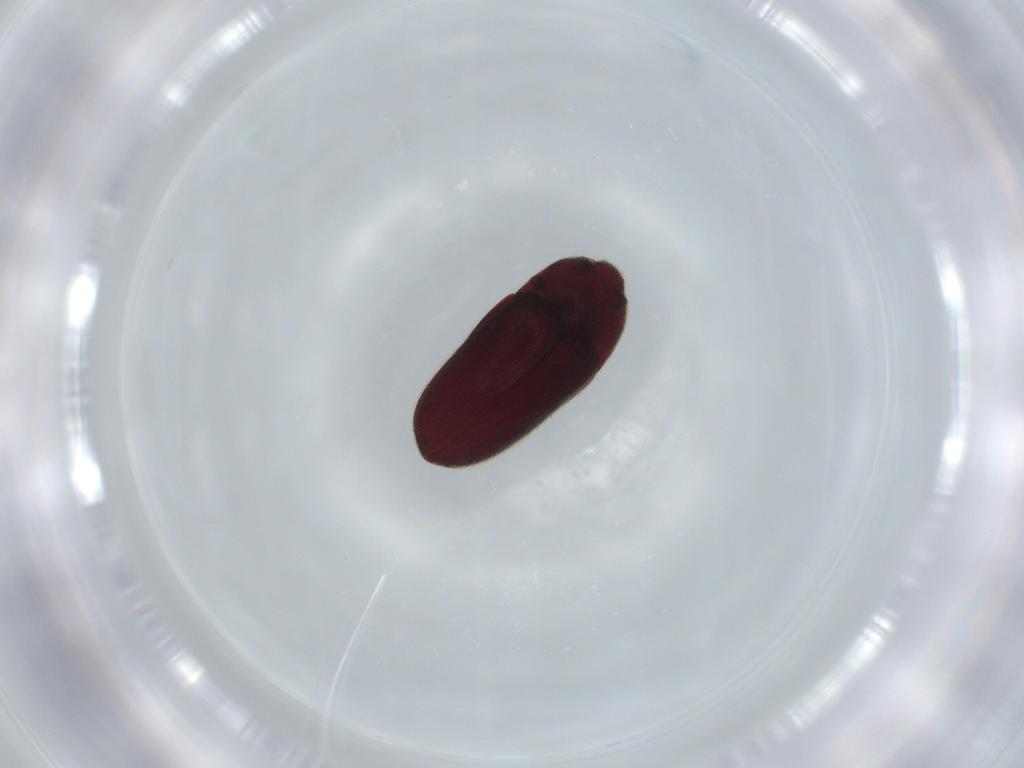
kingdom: Animalia
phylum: Arthropoda
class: Insecta
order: Coleoptera
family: Throscidae
